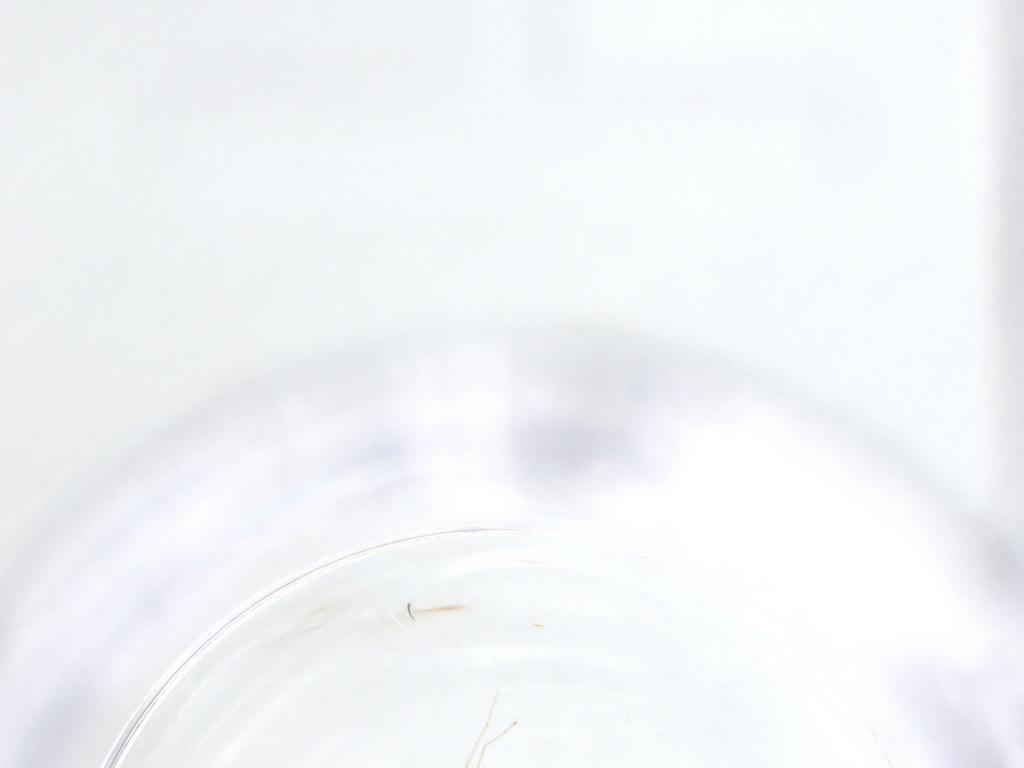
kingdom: Animalia
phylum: Arthropoda
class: Insecta
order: Diptera
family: Cecidomyiidae
